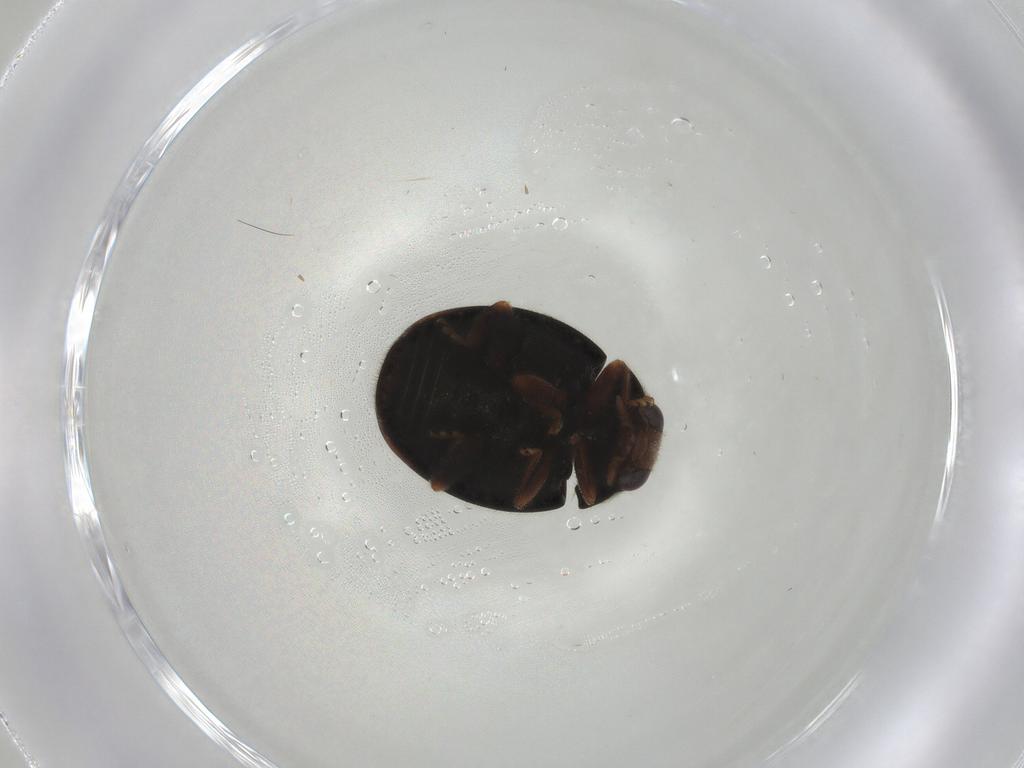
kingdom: Animalia
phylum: Arthropoda
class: Insecta
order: Coleoptera
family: Coccinellidae
